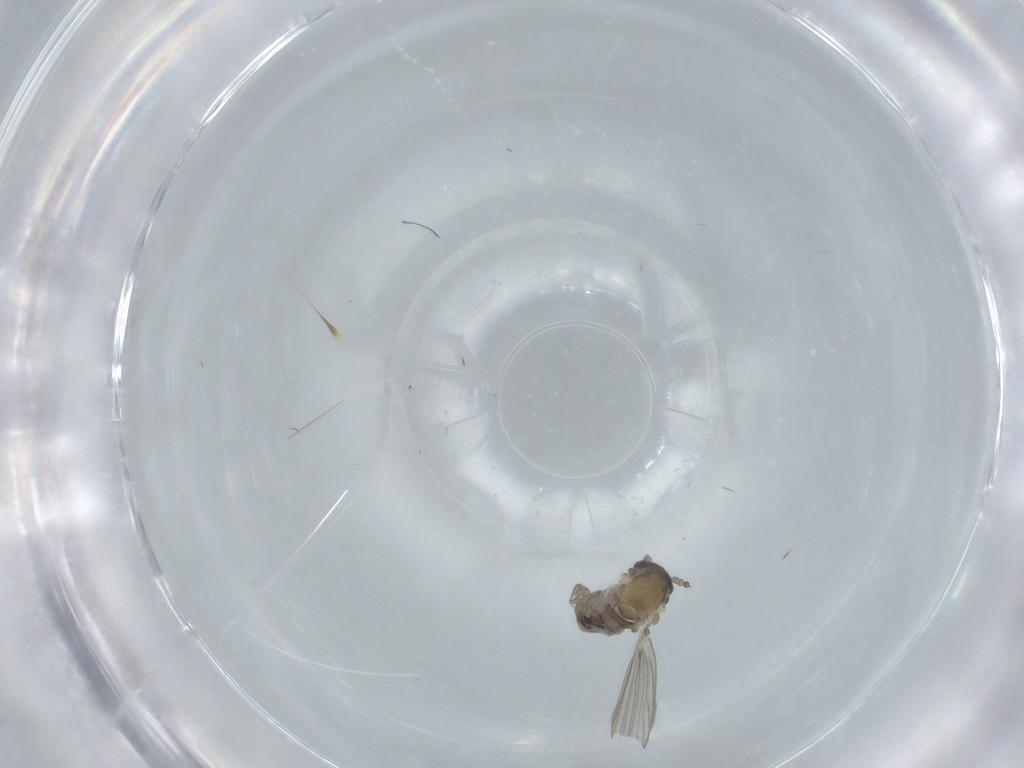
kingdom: Animalia
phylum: Arthropoda
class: Insecta
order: Diptera
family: Psychodidae
